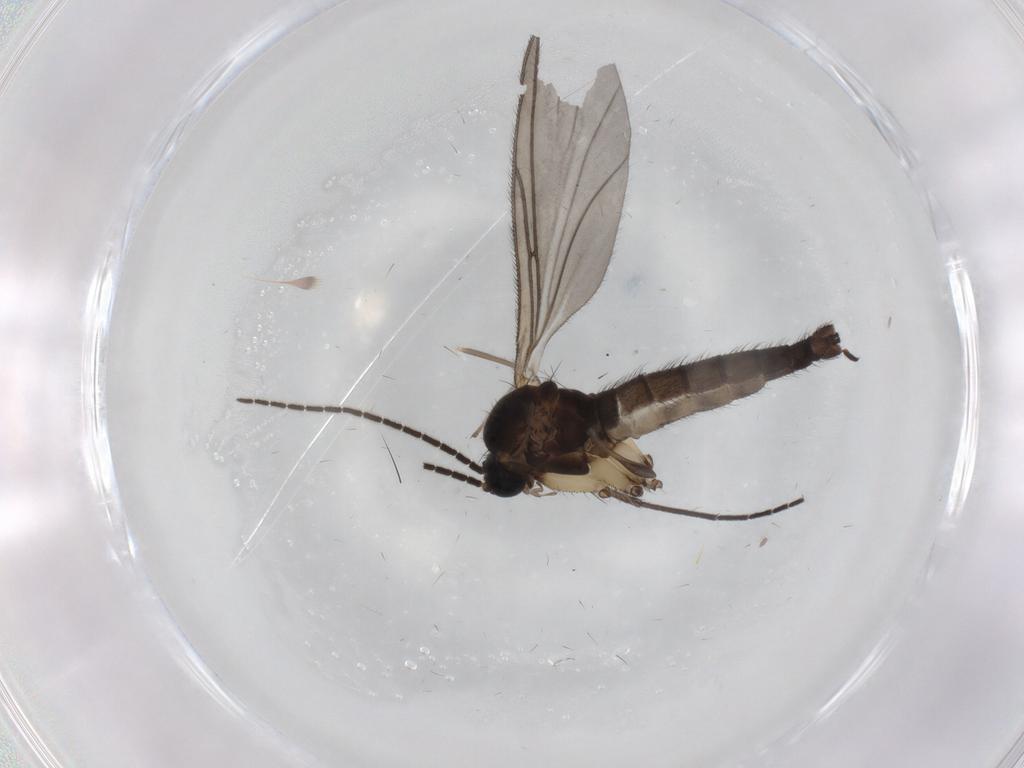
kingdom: Animalia
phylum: Arthropoda
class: Insecta
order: Diptera
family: Sciaridae
